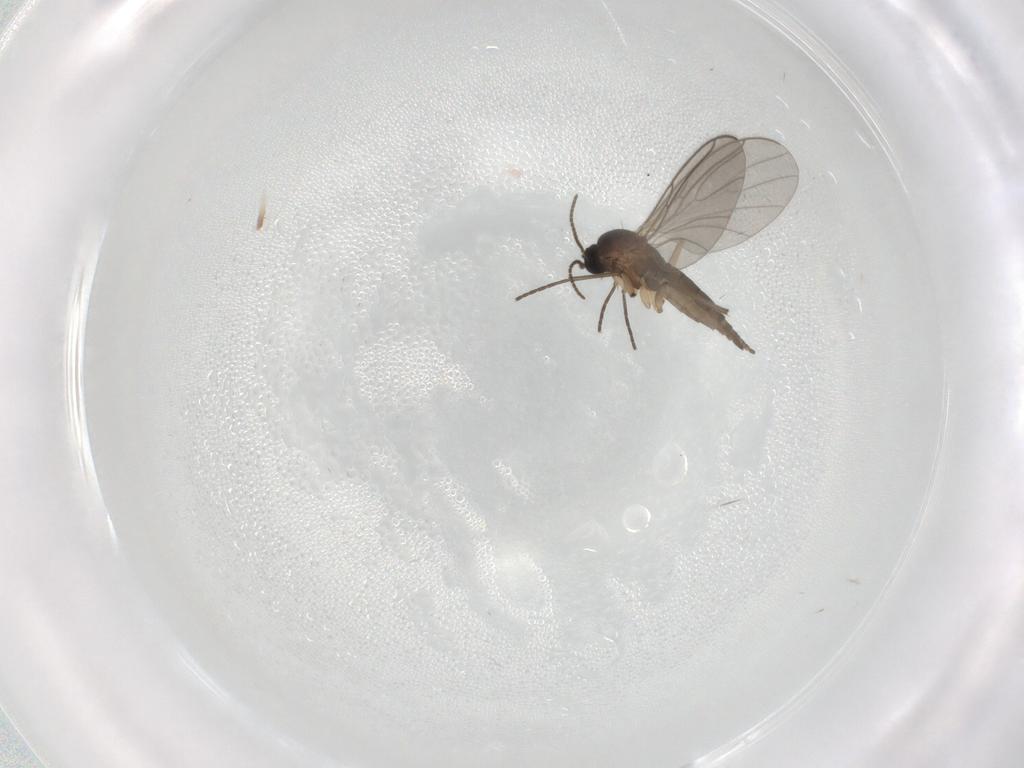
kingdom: Animalia
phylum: Arthropoda
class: Insecta
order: Diptera
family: Sciaridae
